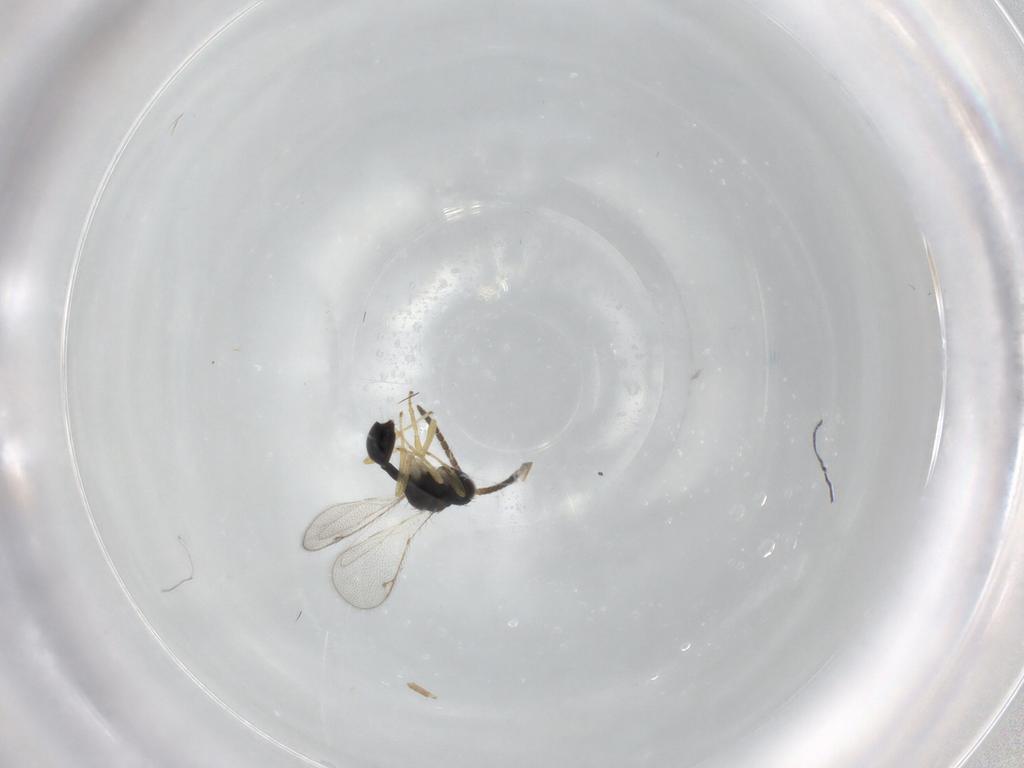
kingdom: Animalia
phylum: Arthropoda
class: Insecta
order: Hymenoptera
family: Diparidae
